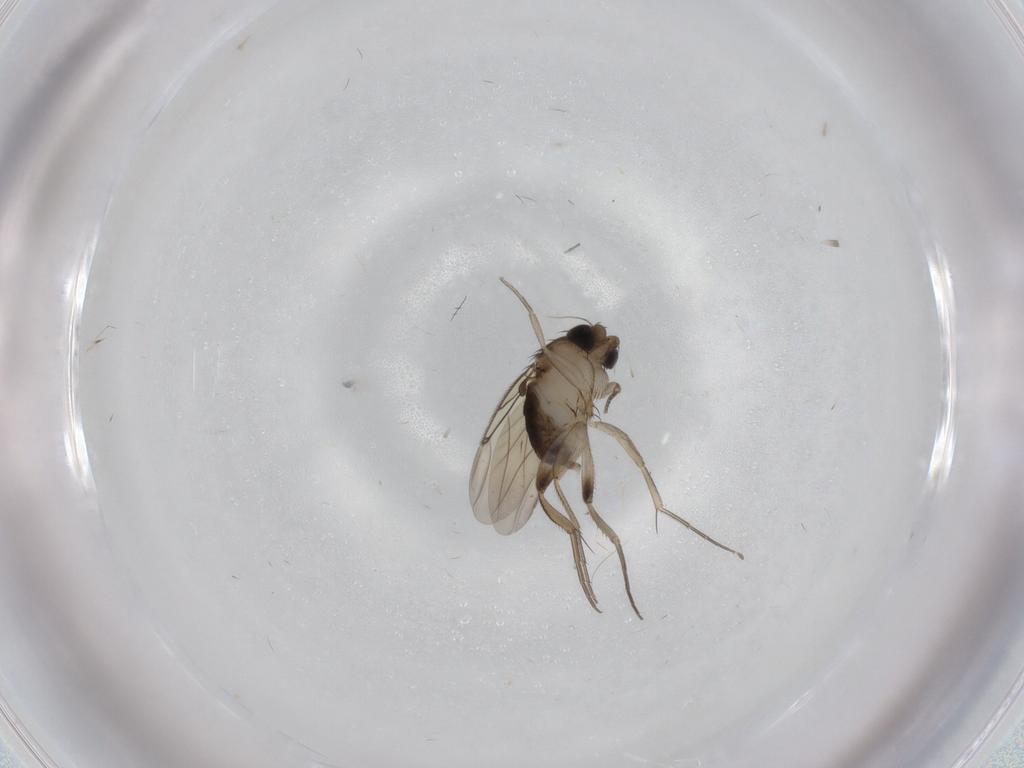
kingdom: Animalia
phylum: Arthropoda
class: Insecta
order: Diptera
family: Phoridae
